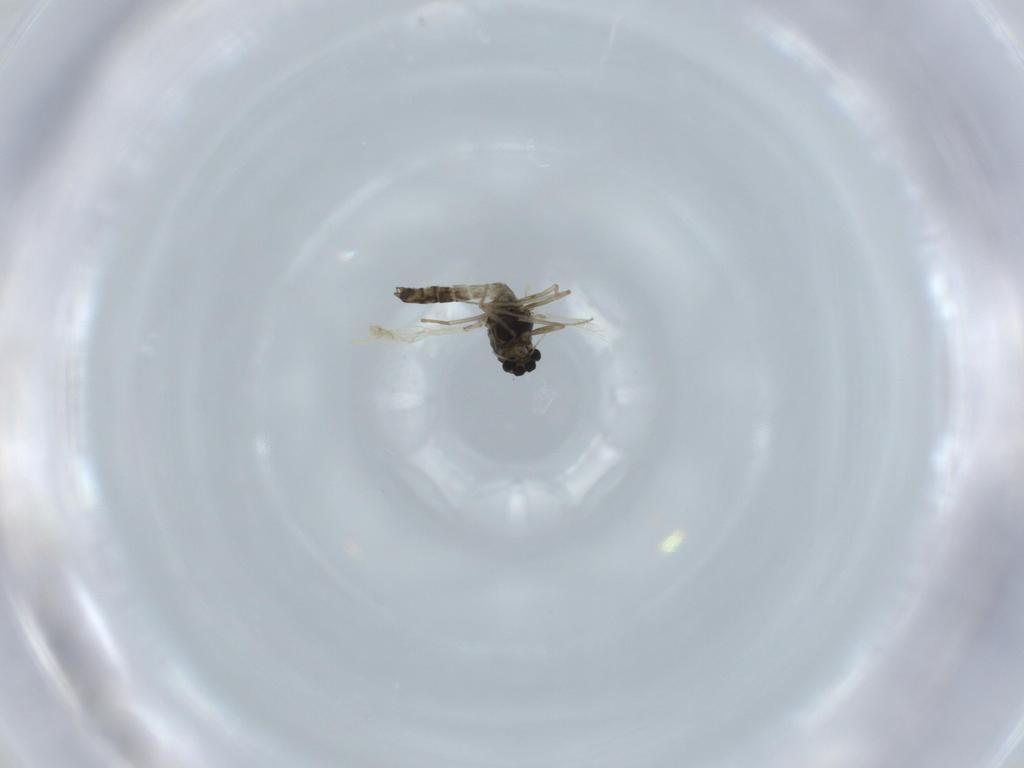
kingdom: Animalia
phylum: Arthropoda
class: Insecta
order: Diptera
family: Chironomidae
